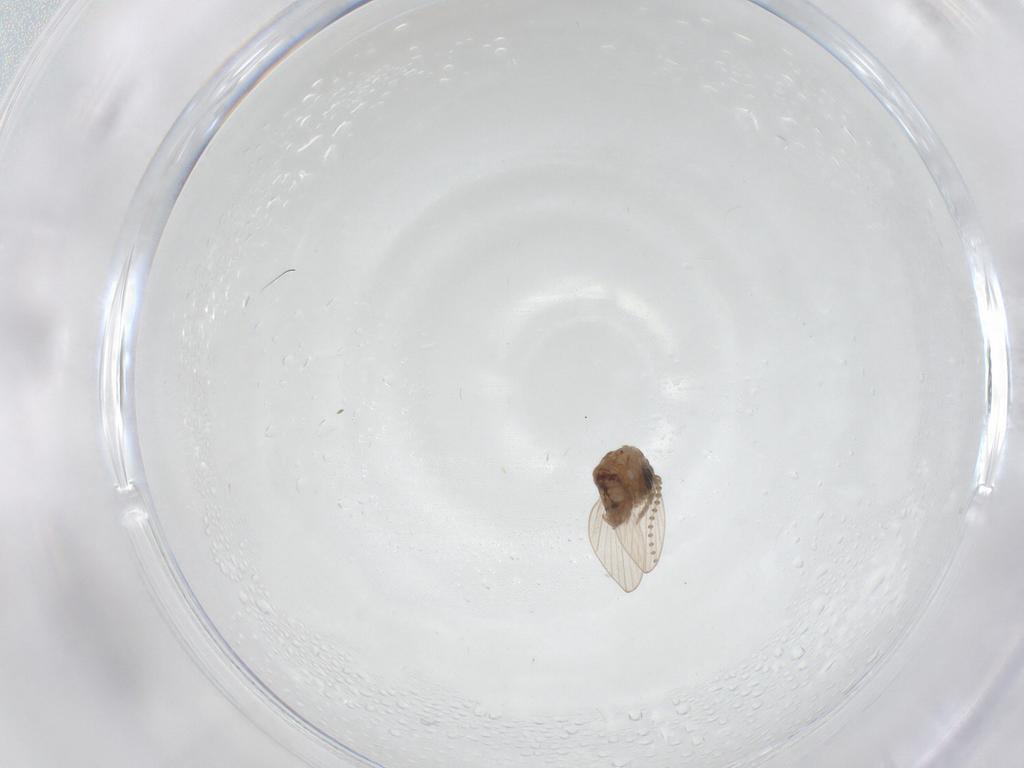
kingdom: Animalia
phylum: Arthropoda
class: Insecta
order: Diptera
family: Psychodidae
